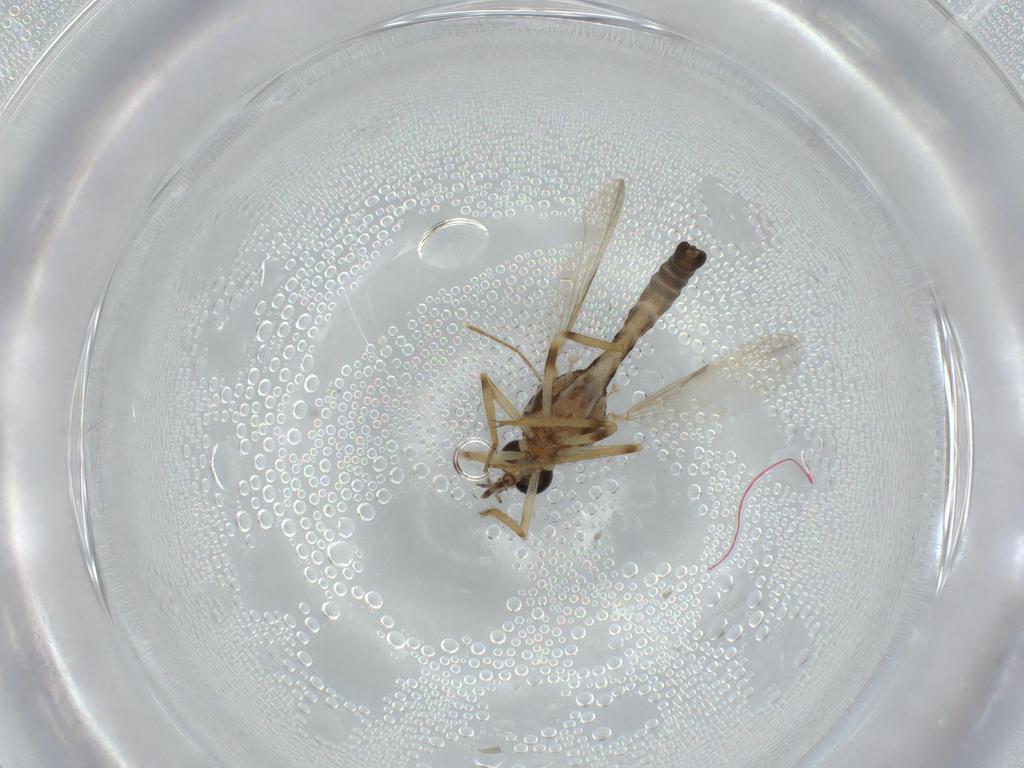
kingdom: Animalia
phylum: Arthropoda
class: Insecta
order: Diptera
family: Ceratopogonidae
